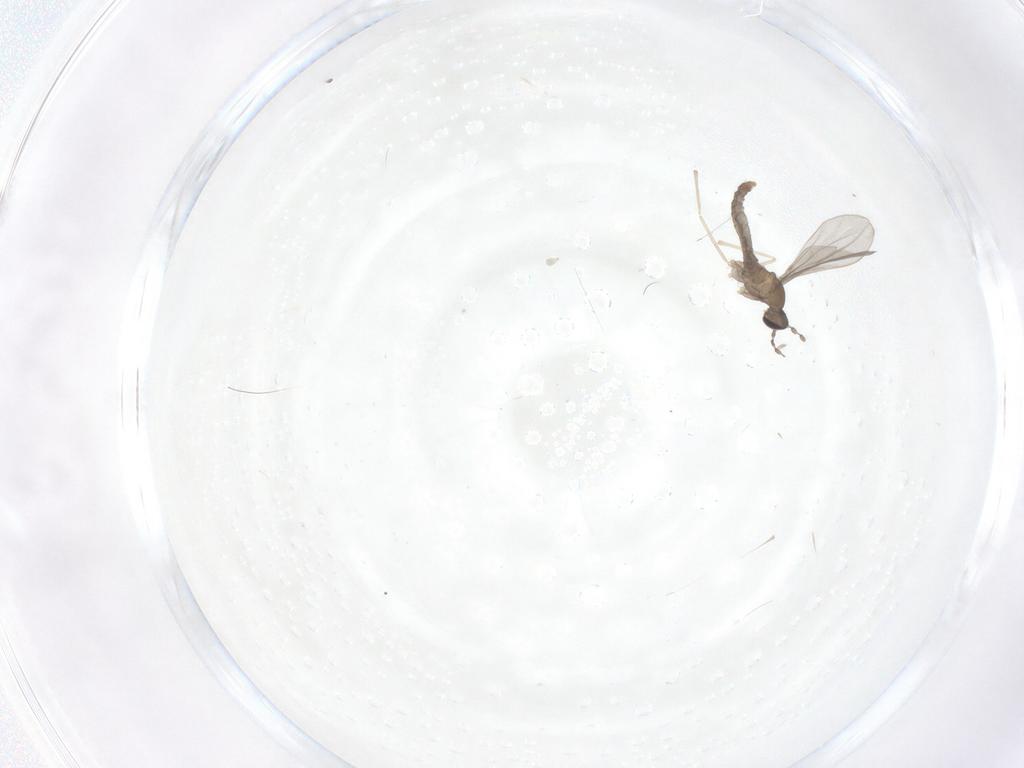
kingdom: Animalia
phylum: Arthropoda
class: Insecta
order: Diptera
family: Cecidomyiidae
